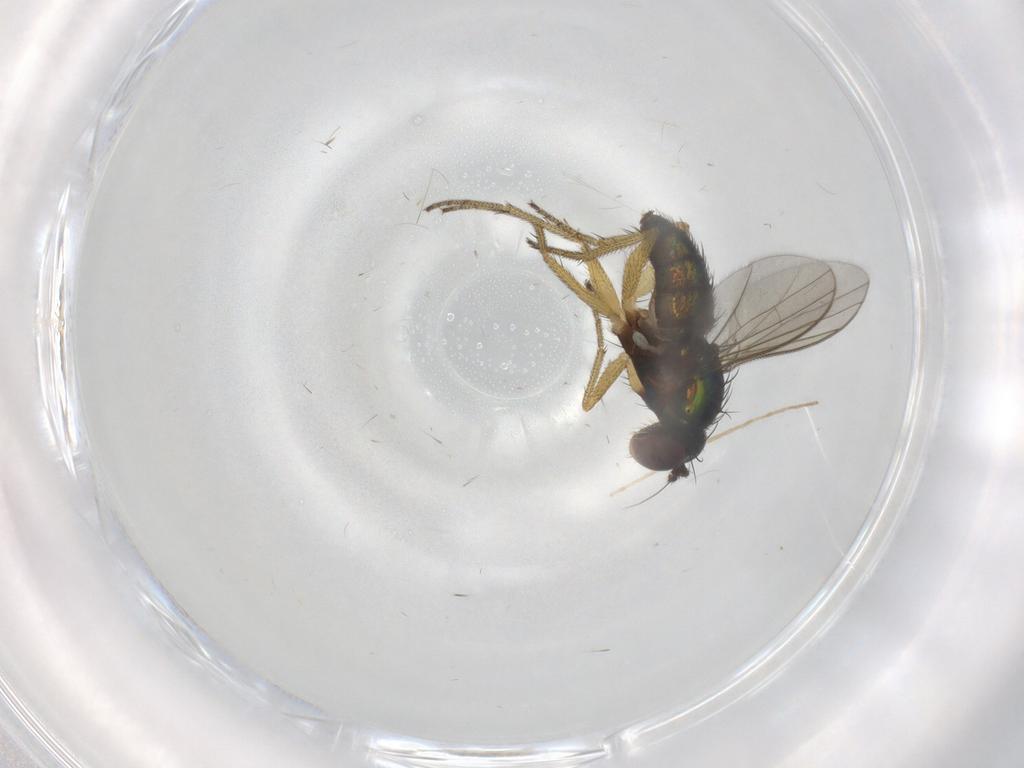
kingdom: Animalia
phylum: Arthropoda
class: Insecta
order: Diptera
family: Dolichopodidae
